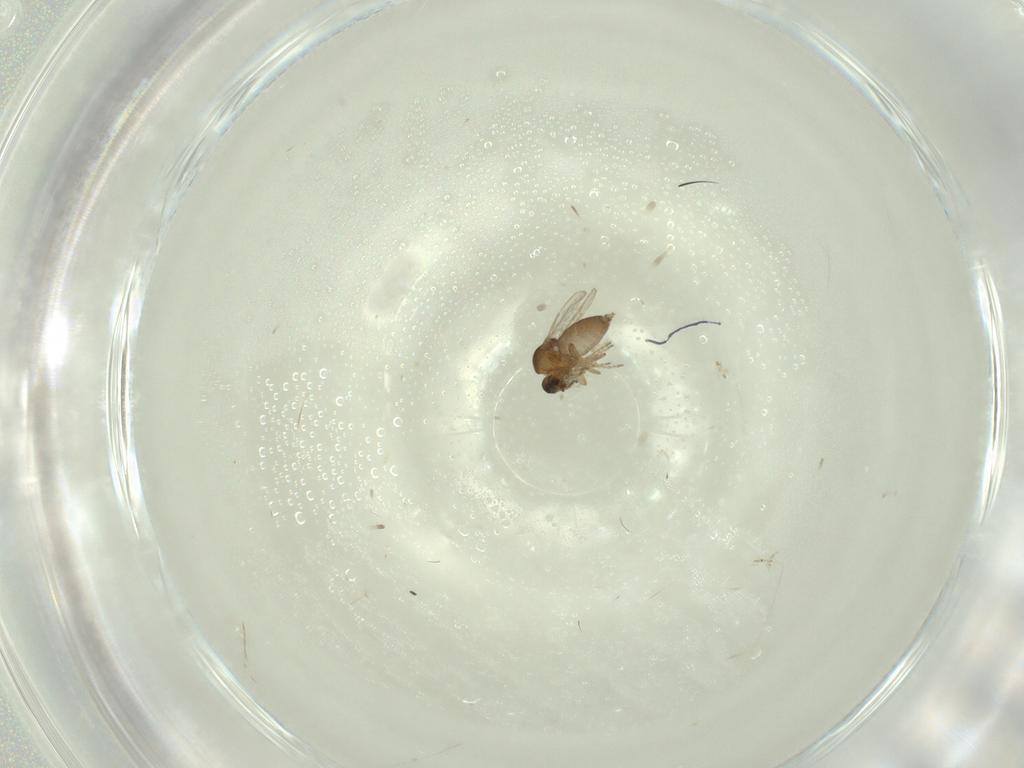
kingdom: Animalia
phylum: Arthropoda
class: Insecta
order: Diptera
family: Ceratopogonidae
